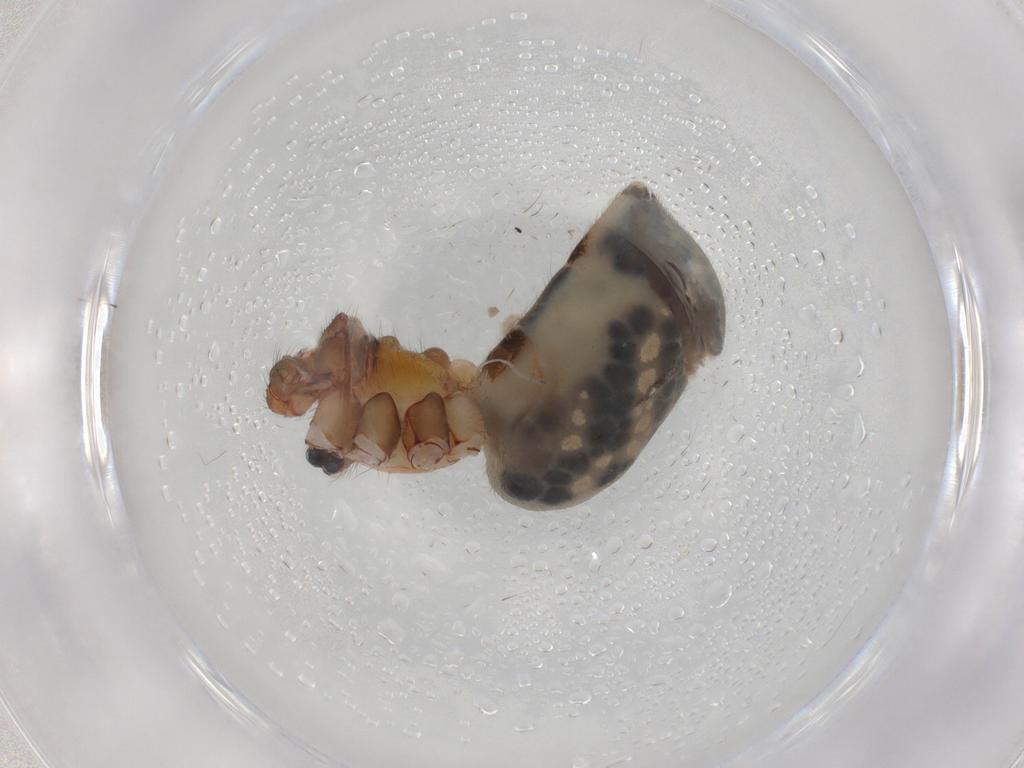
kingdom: Animalia
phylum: Arthropoda
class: Arachnida
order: Araneae
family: Pholcidae
